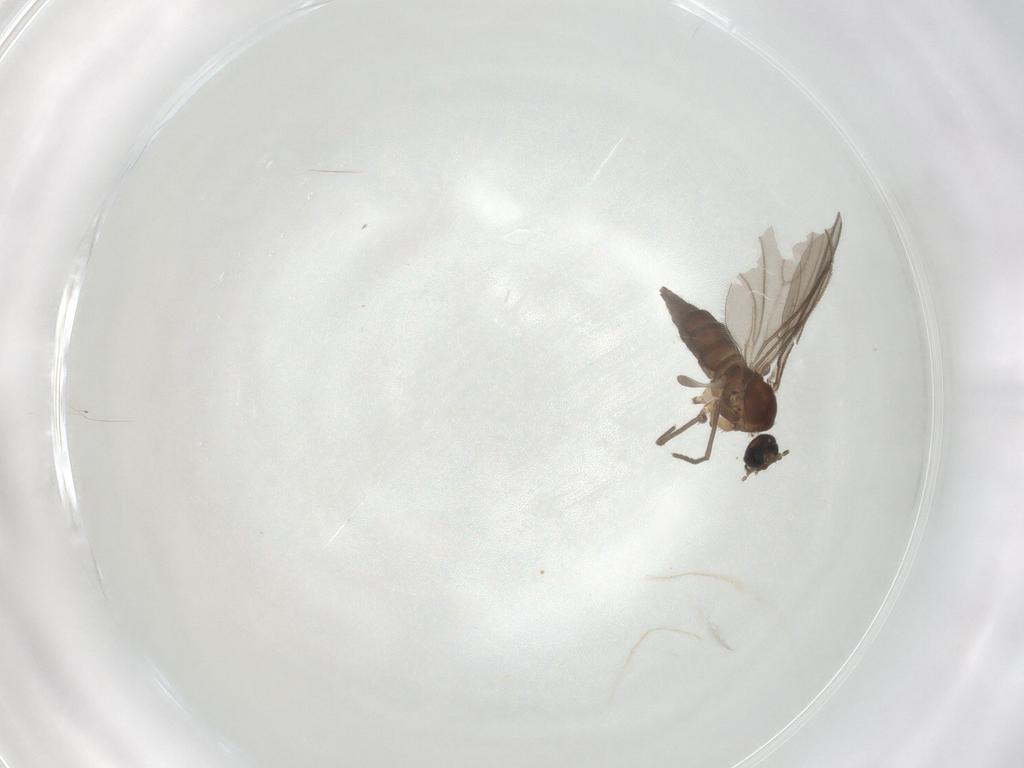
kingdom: Animalia
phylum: Arthropoda
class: Insecta
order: Diptera
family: Sciaridae
